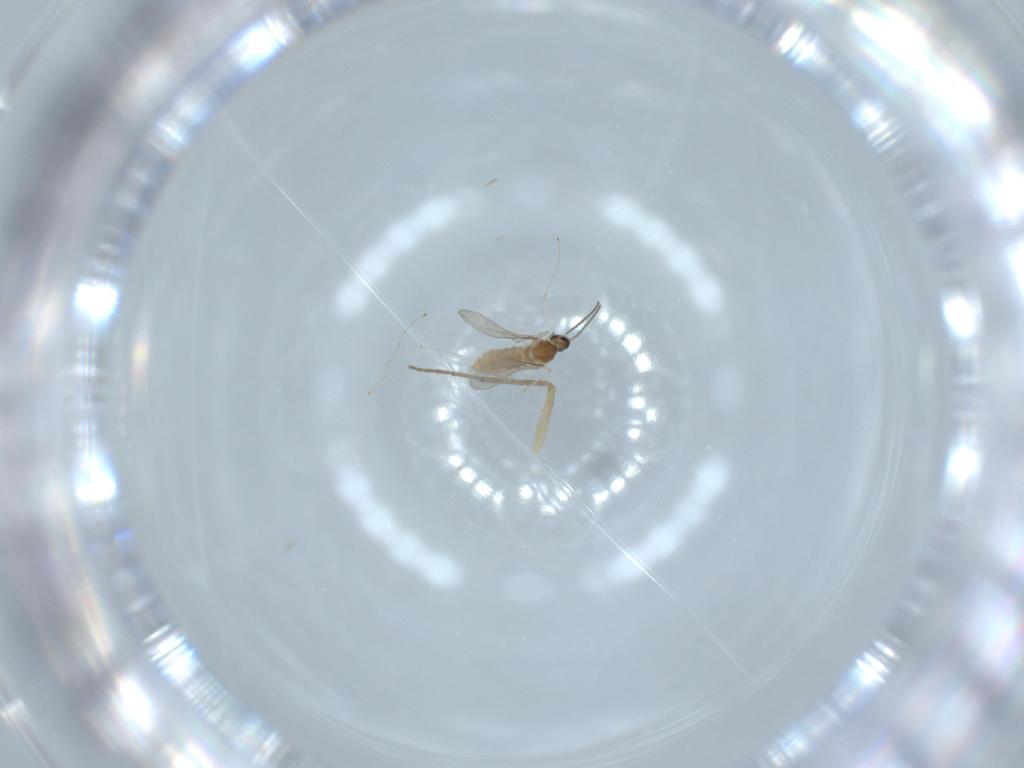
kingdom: Animalia
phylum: Arthropoda
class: Insecta
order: Diptera
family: Cecidomyiidae
